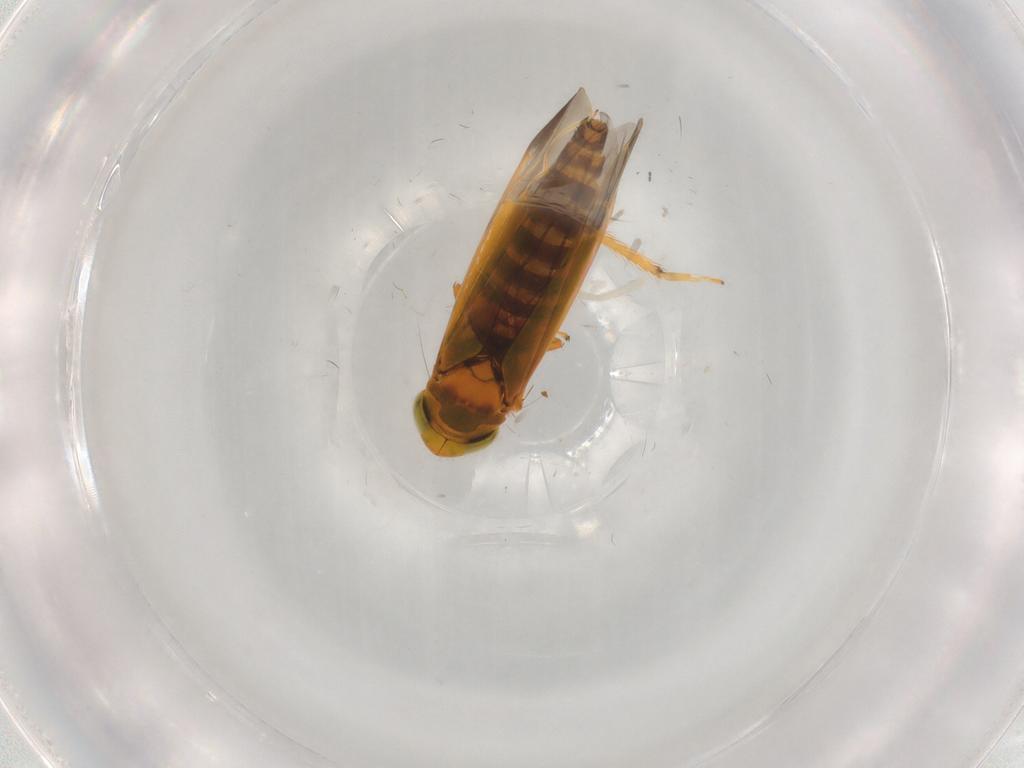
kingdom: Animalia
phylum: Arthropoda
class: Insecta
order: Hemiptera
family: Cicadellidae
